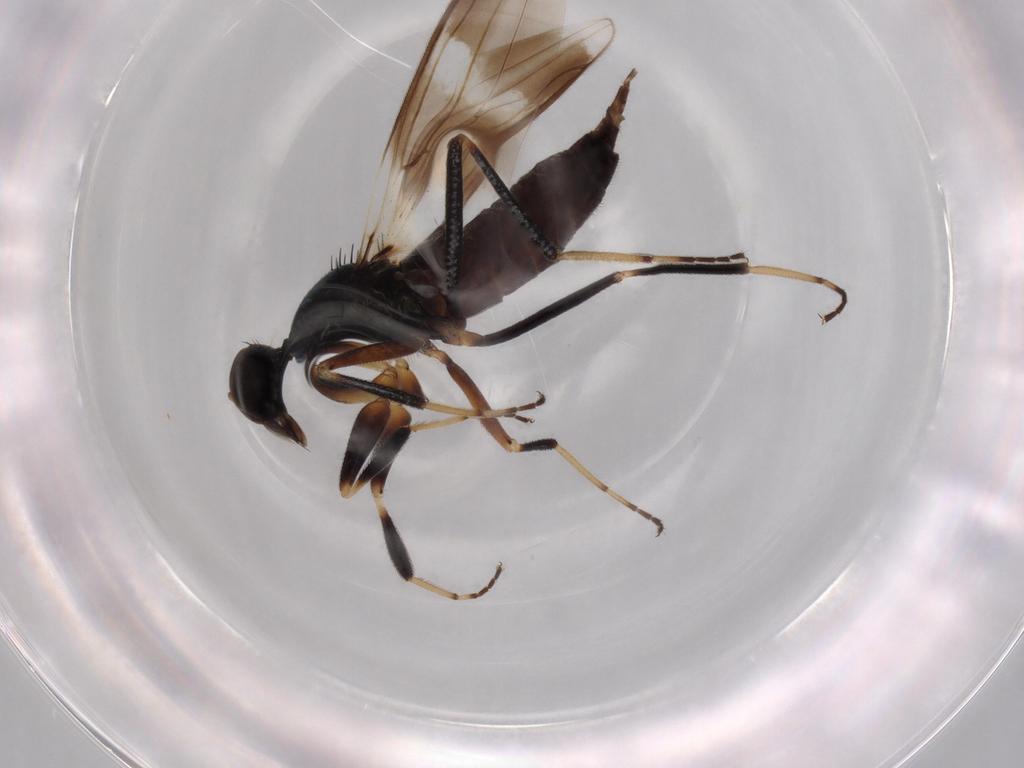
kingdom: Animalia
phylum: Arthropoda
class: Insecta
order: Diptera
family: Hybotidae
